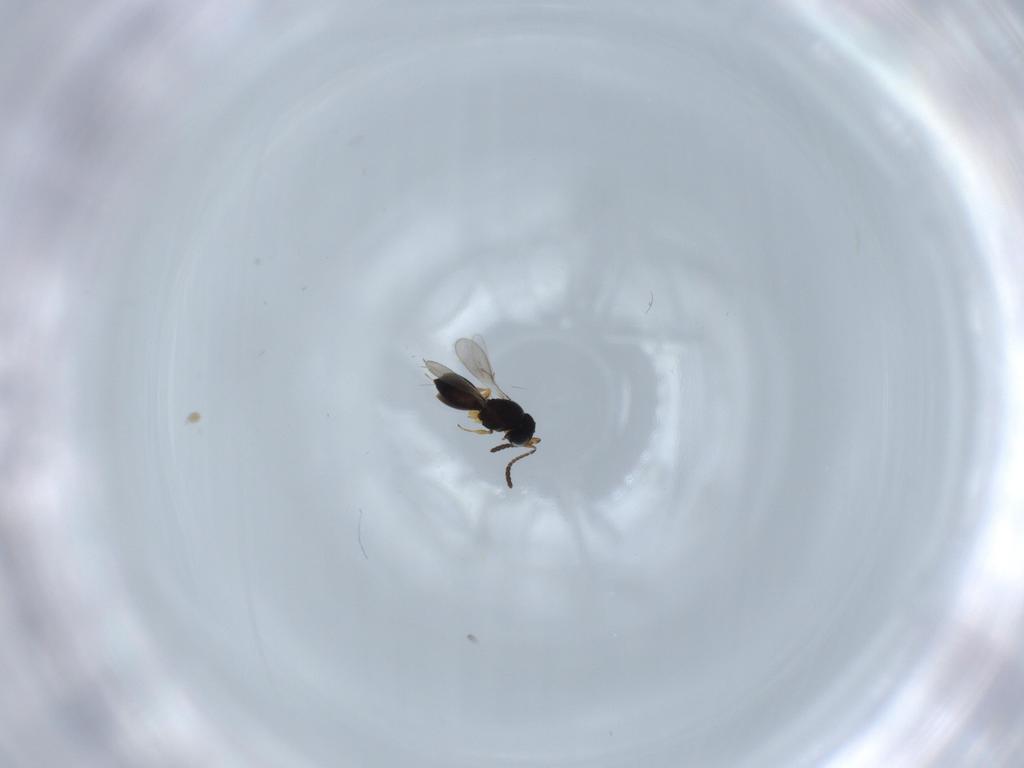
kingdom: Animalia
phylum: Arthropoda
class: Insecta
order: Hymenoptera
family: Scelionidae
